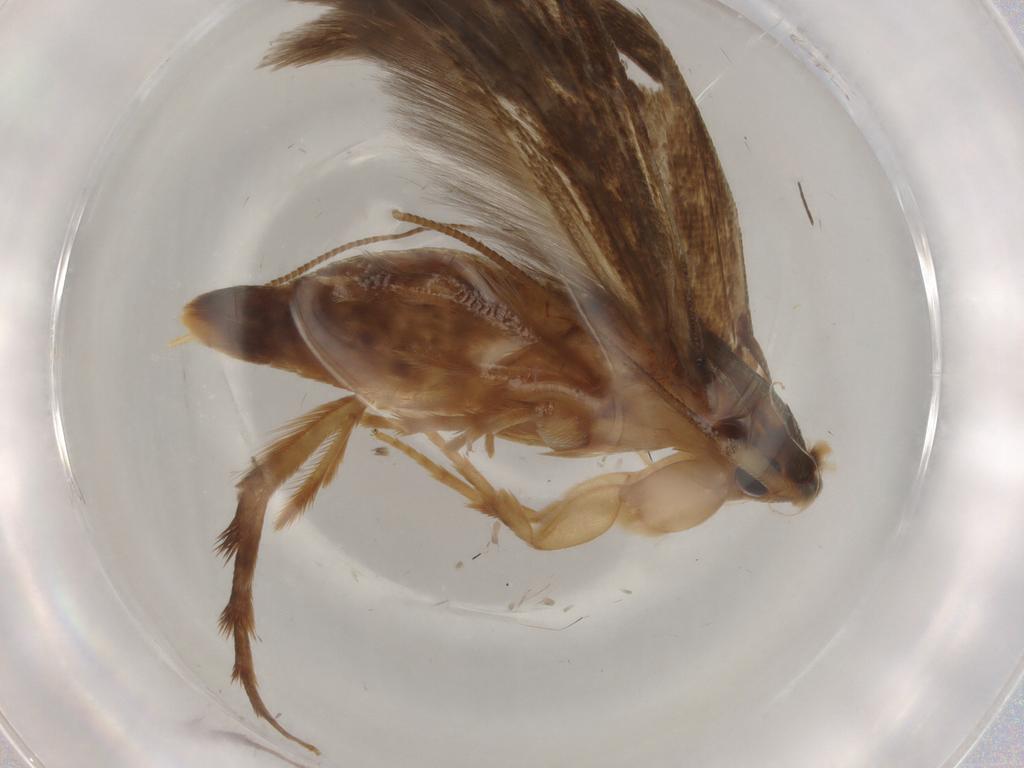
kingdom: Animalia
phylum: Arthropoda
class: Insecta
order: Lepidoptera
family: Tineidae
